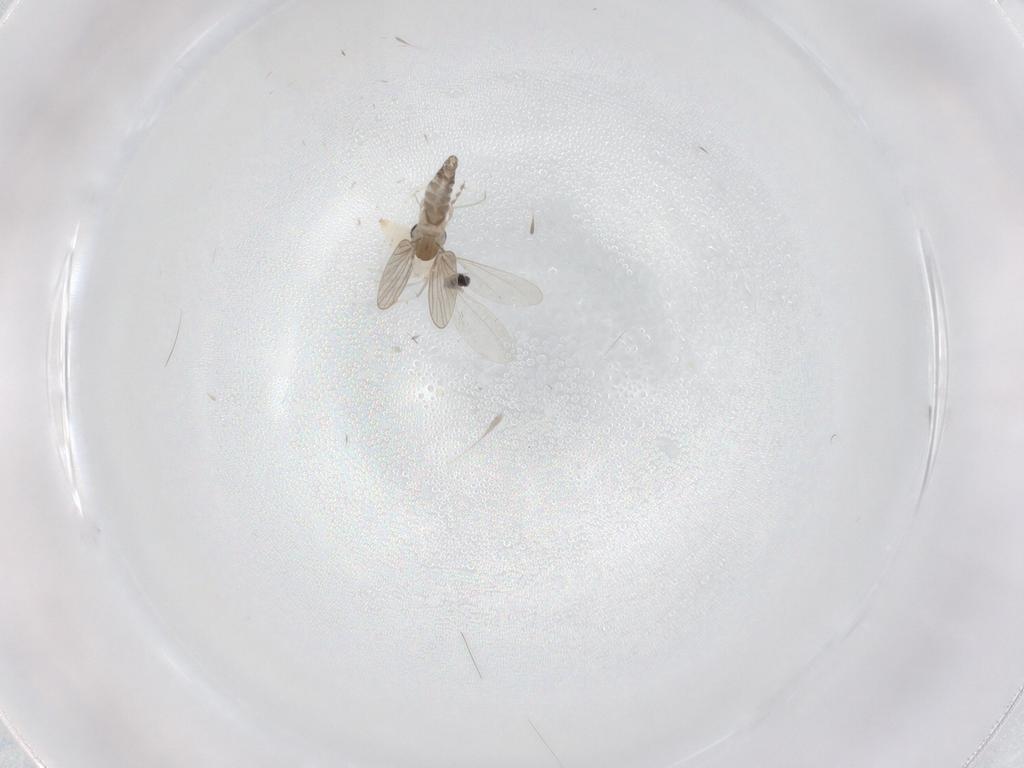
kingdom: Animalia
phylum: Arthropoda
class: Insecta
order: Diptera
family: Cecidomyiidae
